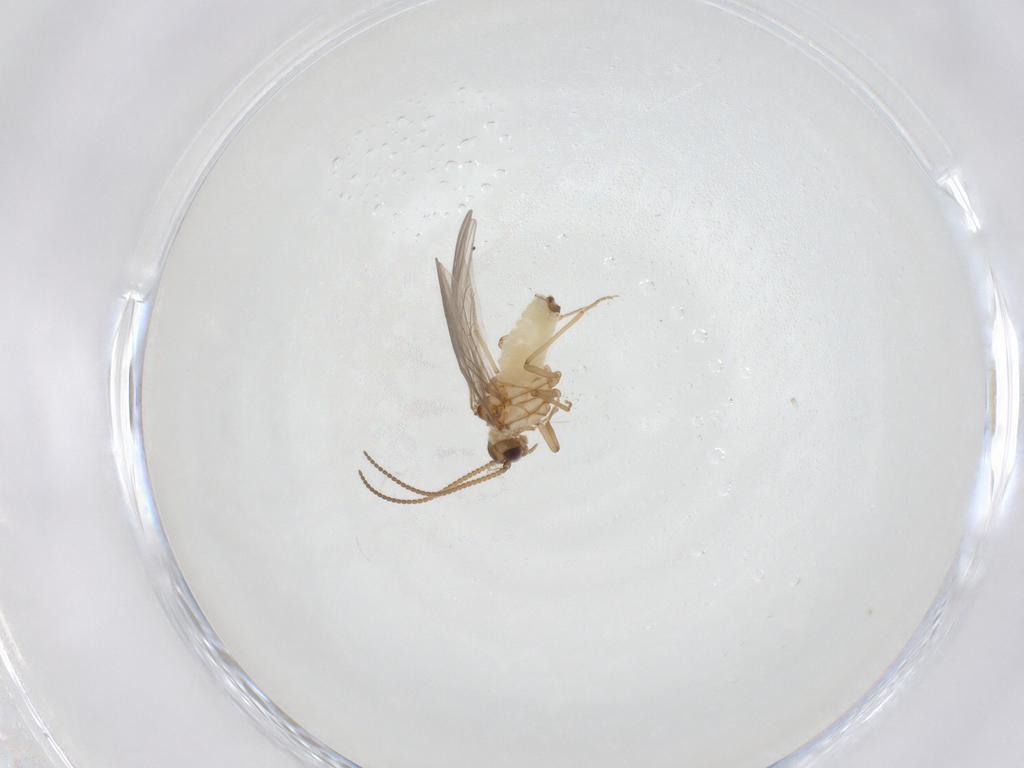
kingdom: Animalia
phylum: Arthropoda
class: Insecta
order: Neuroptera
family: Coniopterygidae
